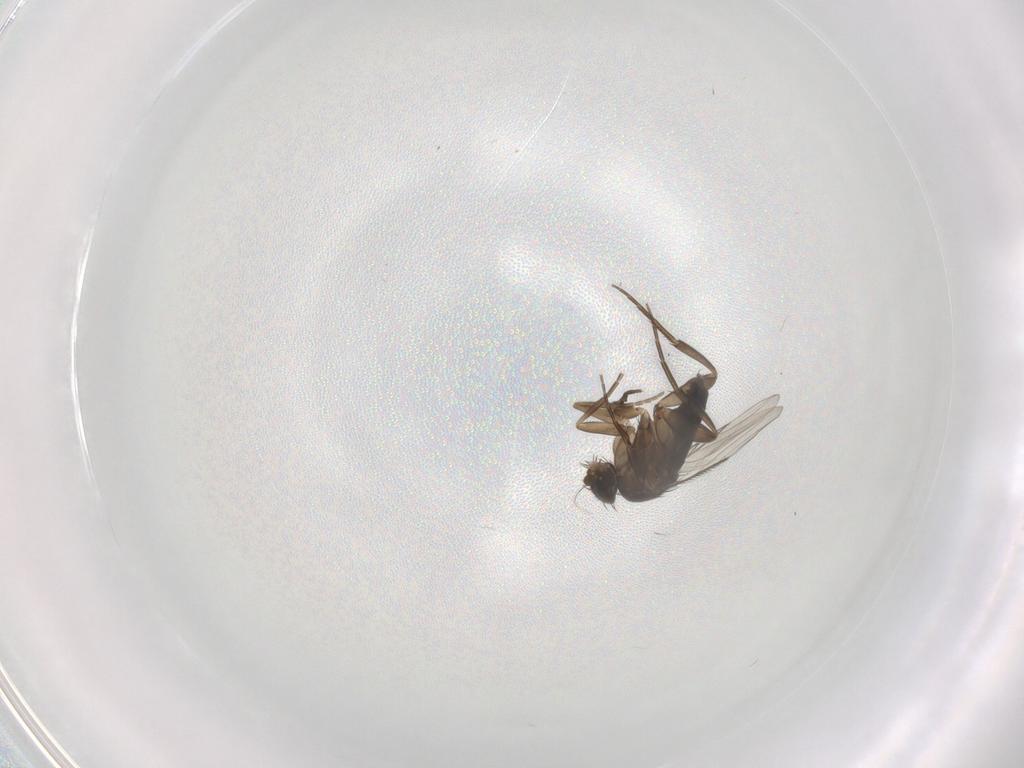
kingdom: Animalia
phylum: Arthropoda
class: Insecta
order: Diptera
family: Phoridae
